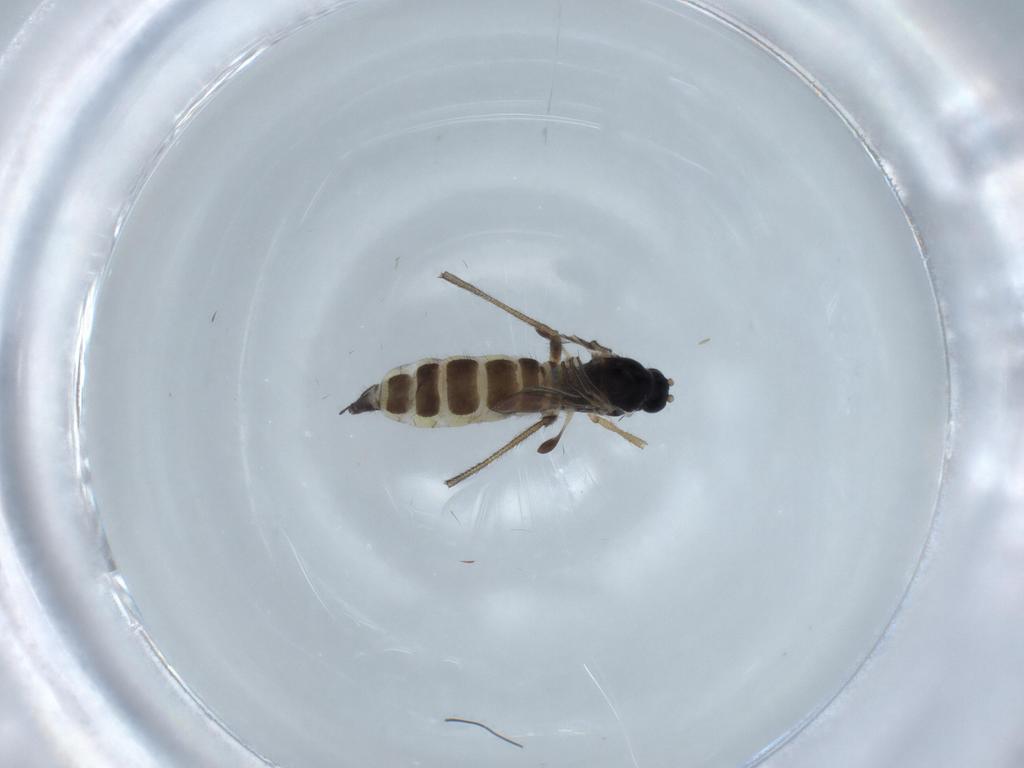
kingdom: Animalia
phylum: Arthropoda
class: Insecta
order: Diptera
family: Sciaridae
